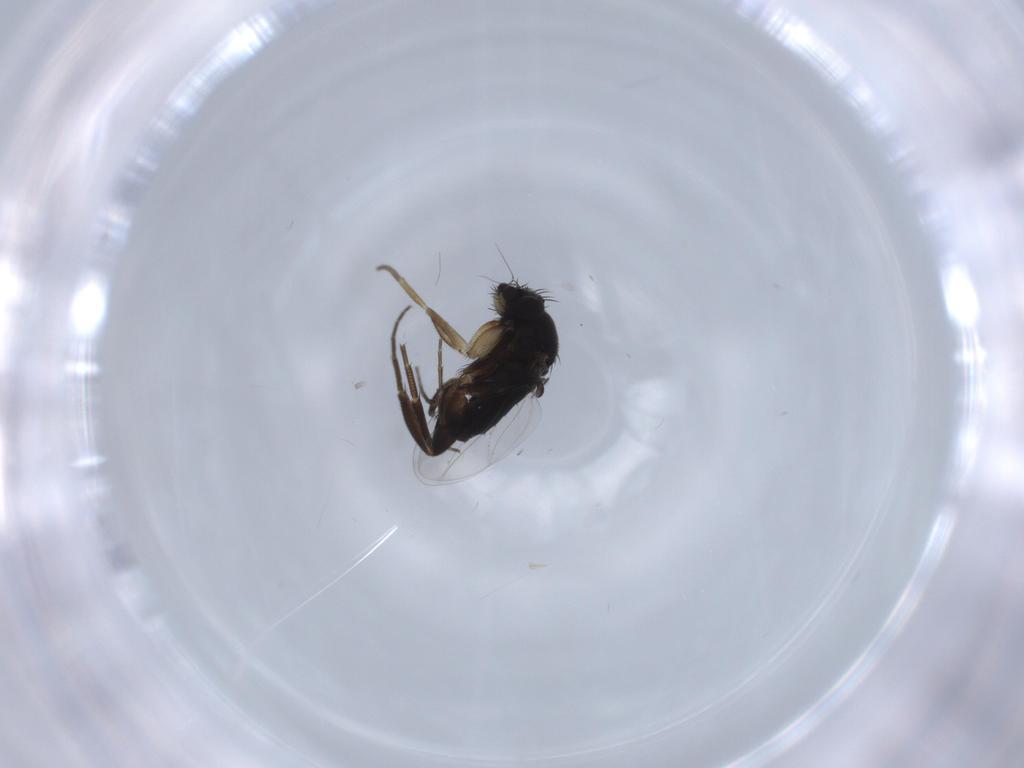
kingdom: Animalia
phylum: Arthropoda
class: Insecta
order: Diptera
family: Phoridae
